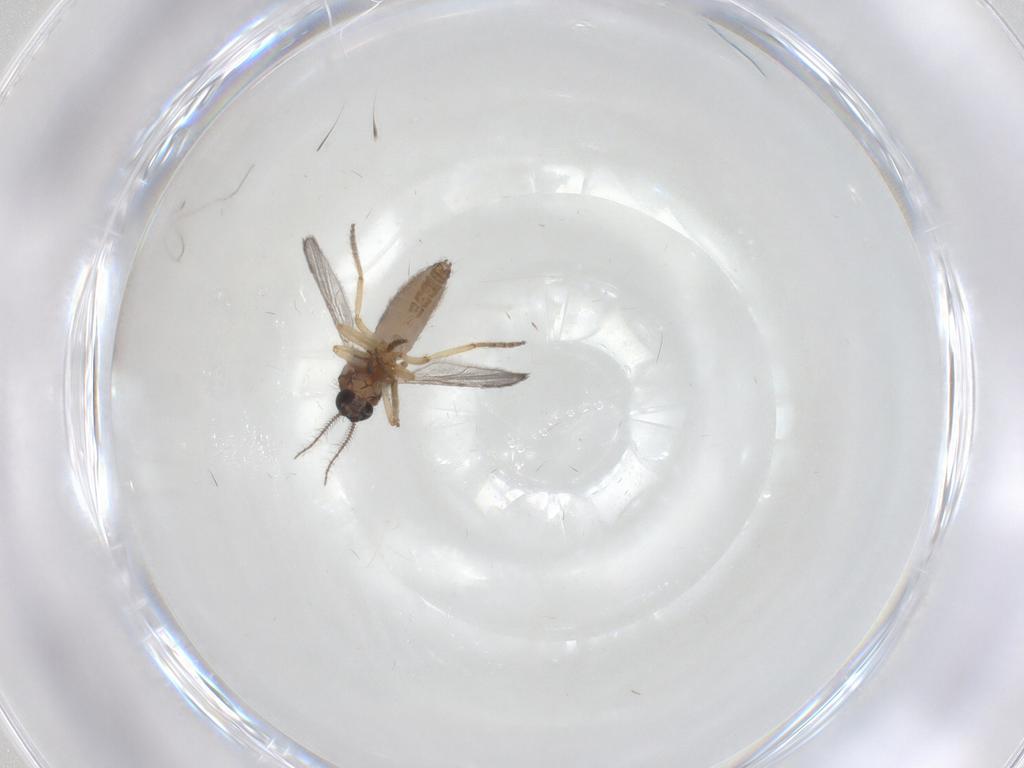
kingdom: Animalia
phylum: Arthropoda
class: Insecta
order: Diptera
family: Ceratopogonidae
